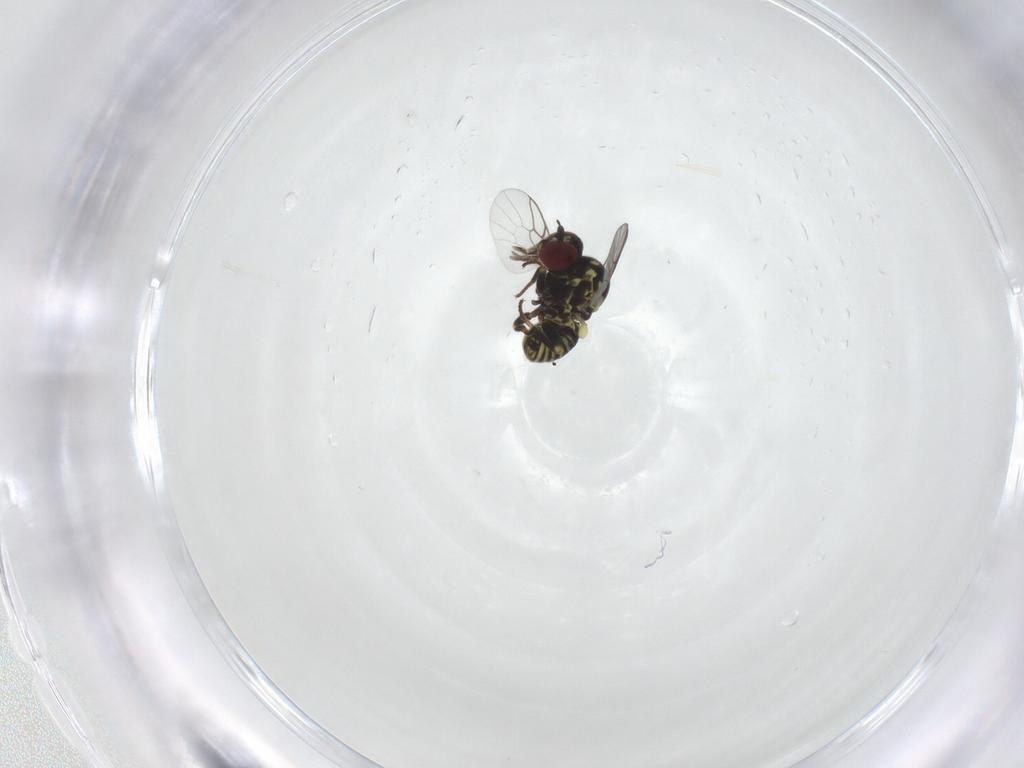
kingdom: Animalia
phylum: Arthropoda
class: Insecta
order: Diptera
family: Mythicomyiidae
